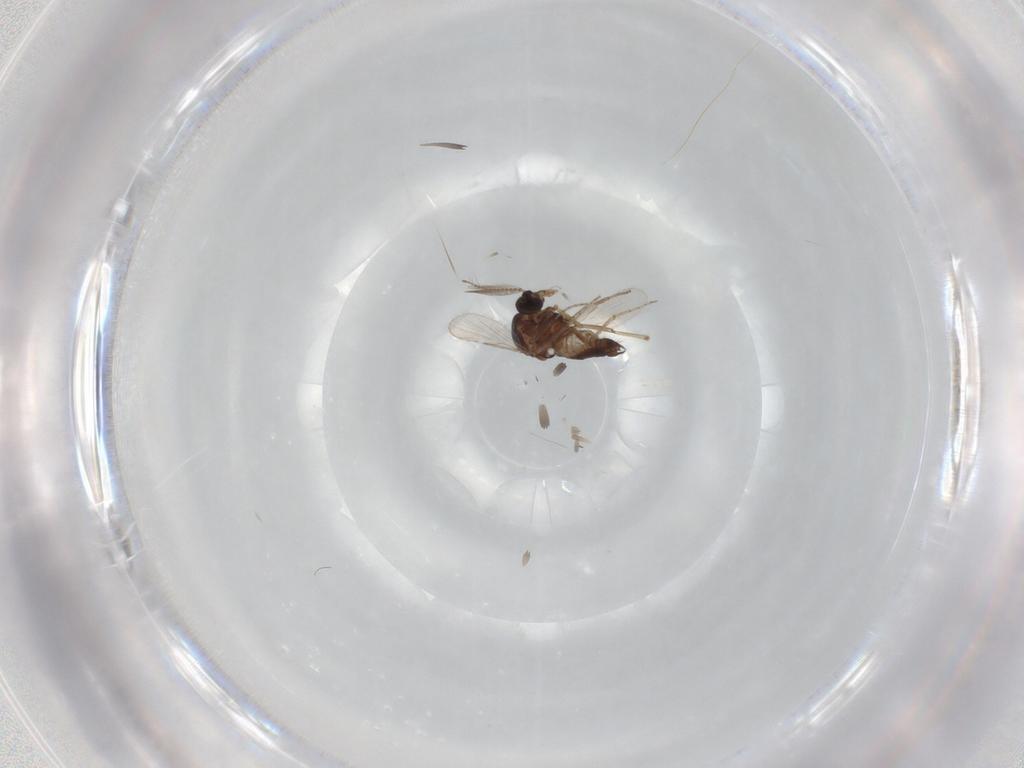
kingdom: Animalia
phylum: Arthropoda
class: Insecta
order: Diptera
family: Ceratopogonidae
